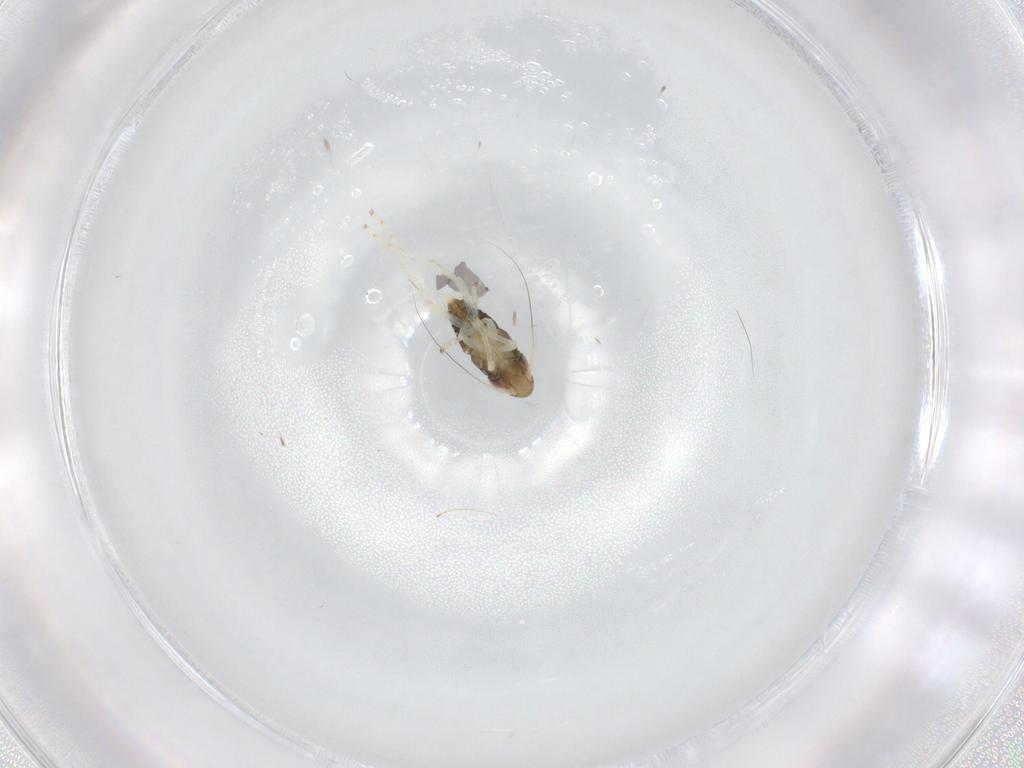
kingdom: Animalia
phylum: Arthropoda
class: Insecta
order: Hemiptera
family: Cicadellidae
